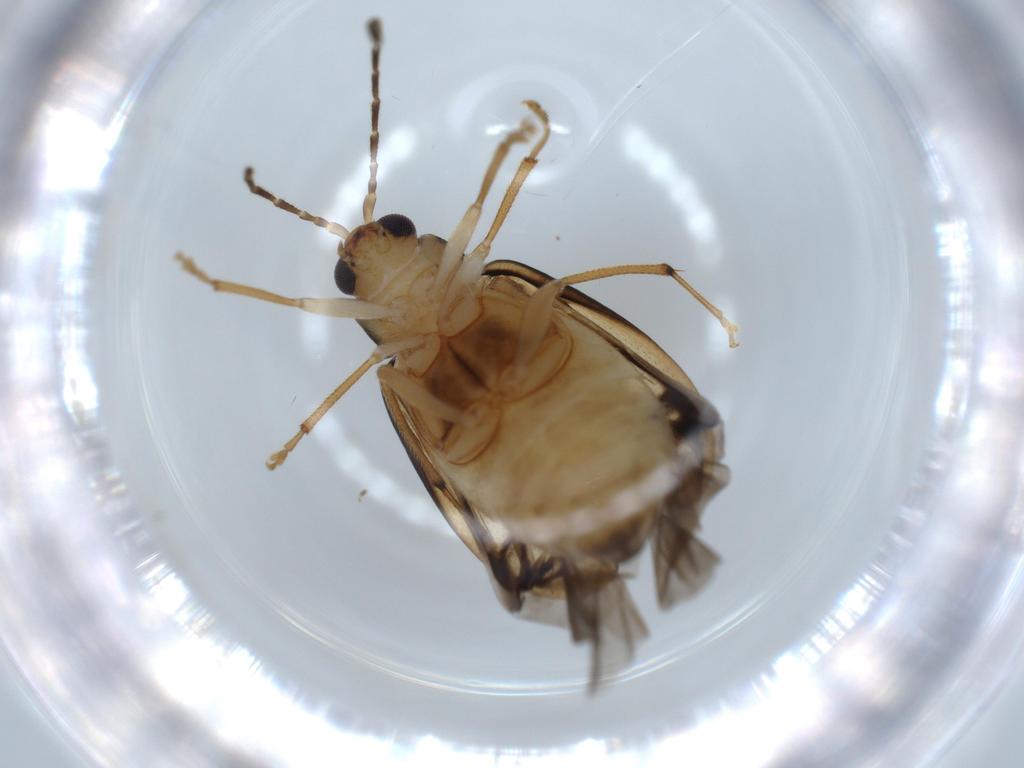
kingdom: Animalia
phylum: Arthropoda
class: Insecta
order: Coleoptera
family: Chrysomelidae
